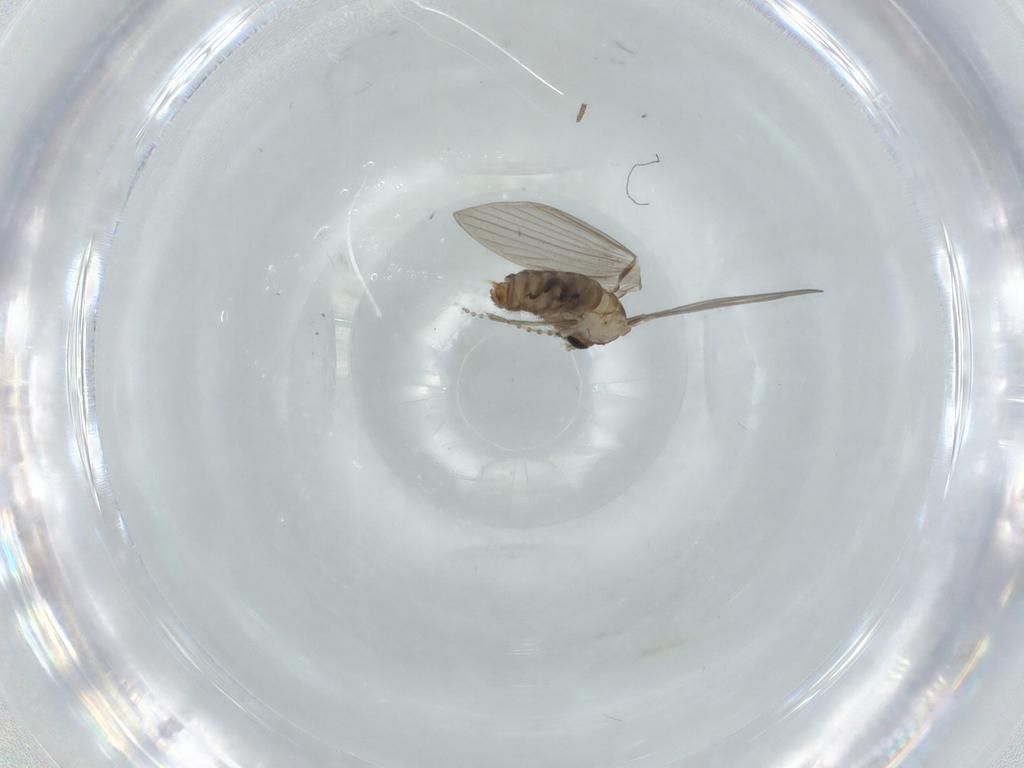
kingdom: Animalia
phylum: Arthropoda
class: Insecta
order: Diptera
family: Psychodidae
